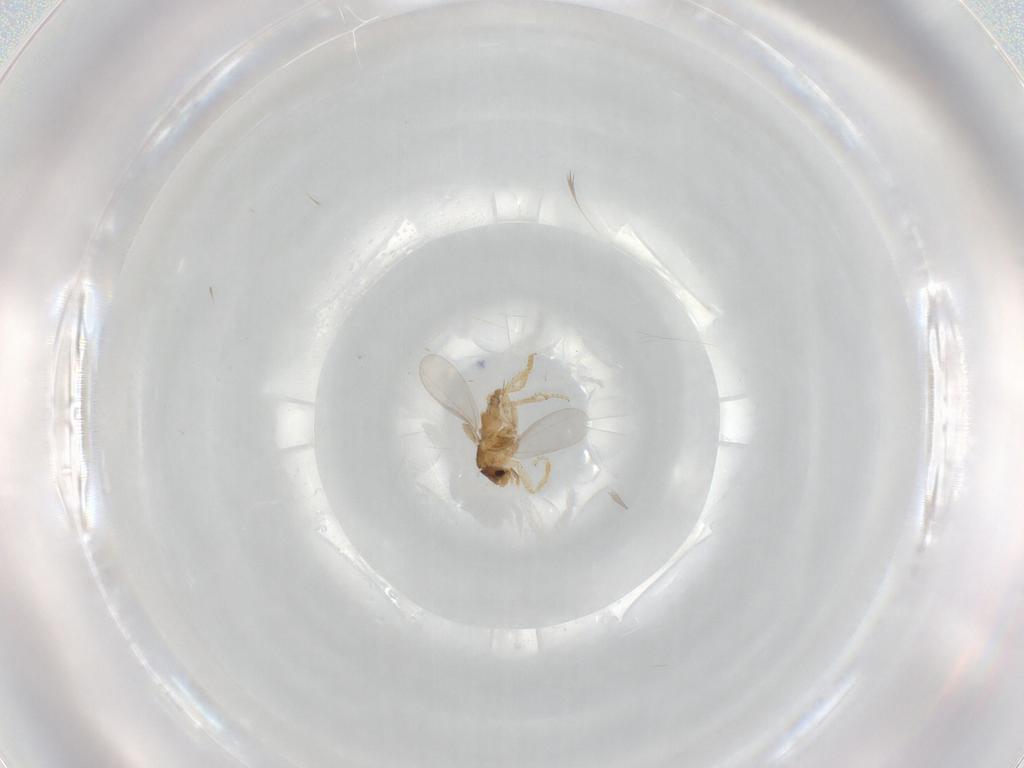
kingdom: Animalia
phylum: Arthropoda
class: Insecta
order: Diptera
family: Phoridae
